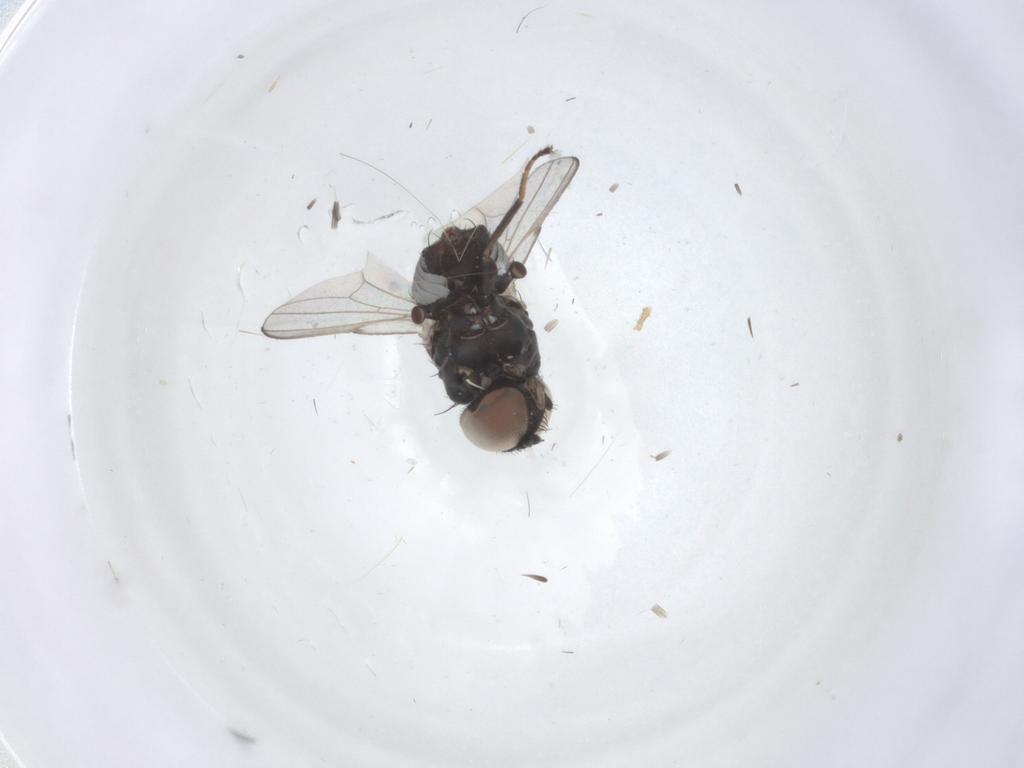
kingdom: Animalia
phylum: Arthropoda
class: Insecta
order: Diptera
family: Milichiidae
